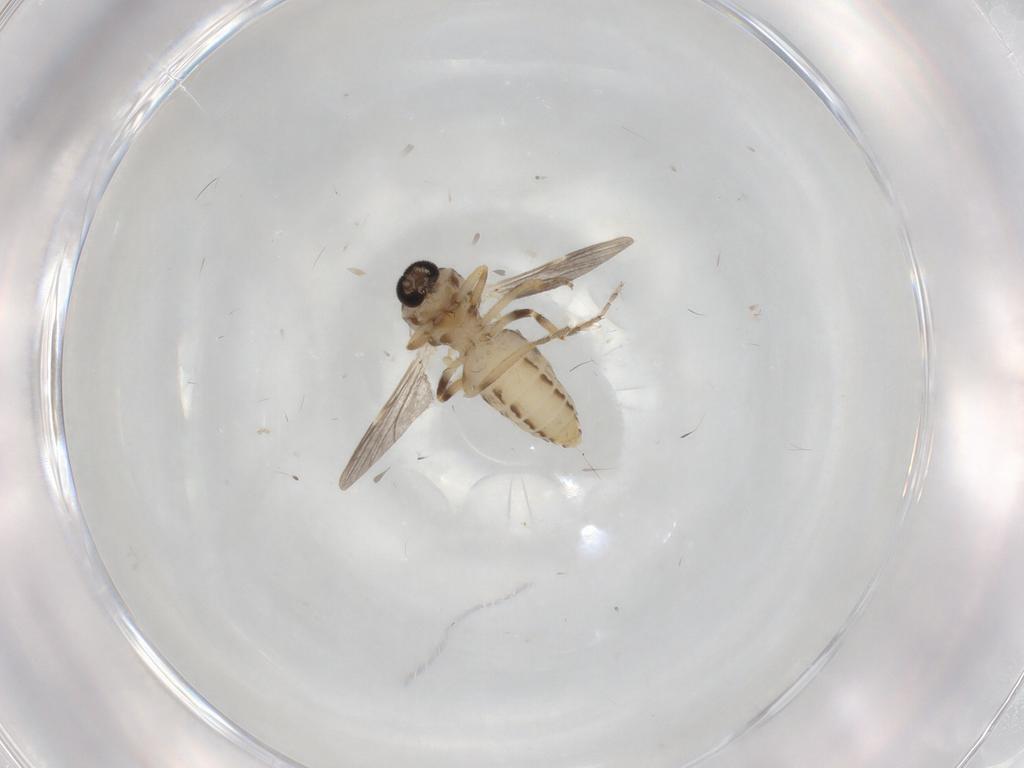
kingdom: Animalia
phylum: Arthropoda
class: Insecta
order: Diptera
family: Ceratopogonidae
